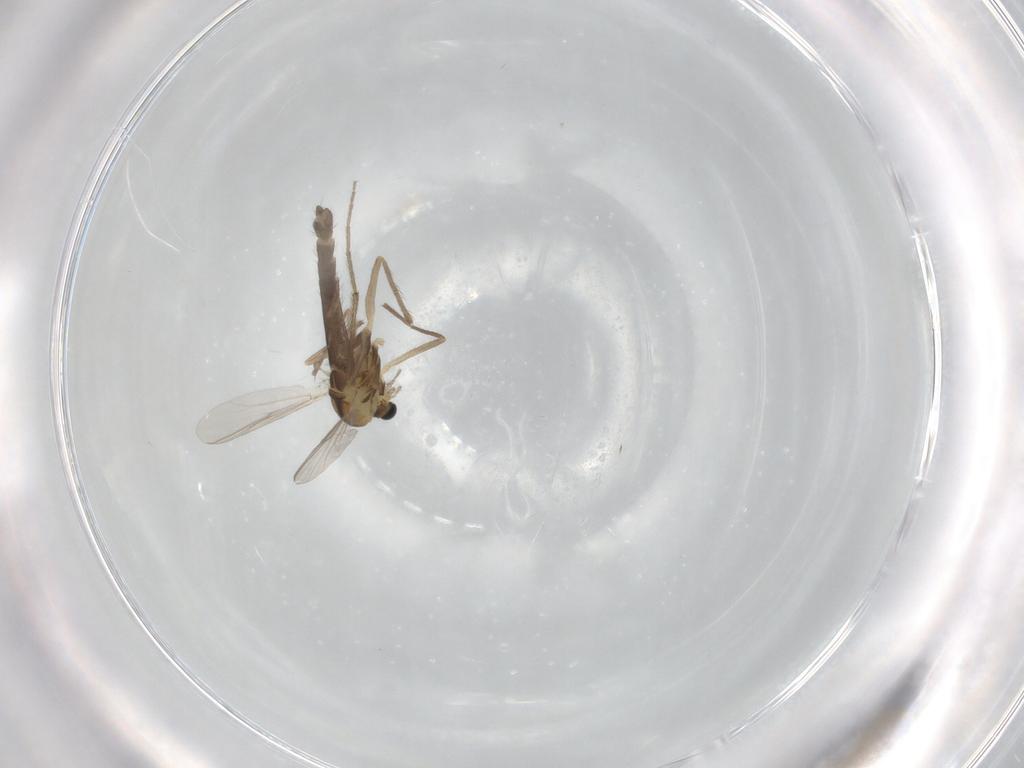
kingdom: Animalia
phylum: Arthropoda
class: Insecta
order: Diptera
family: Chironomidae
